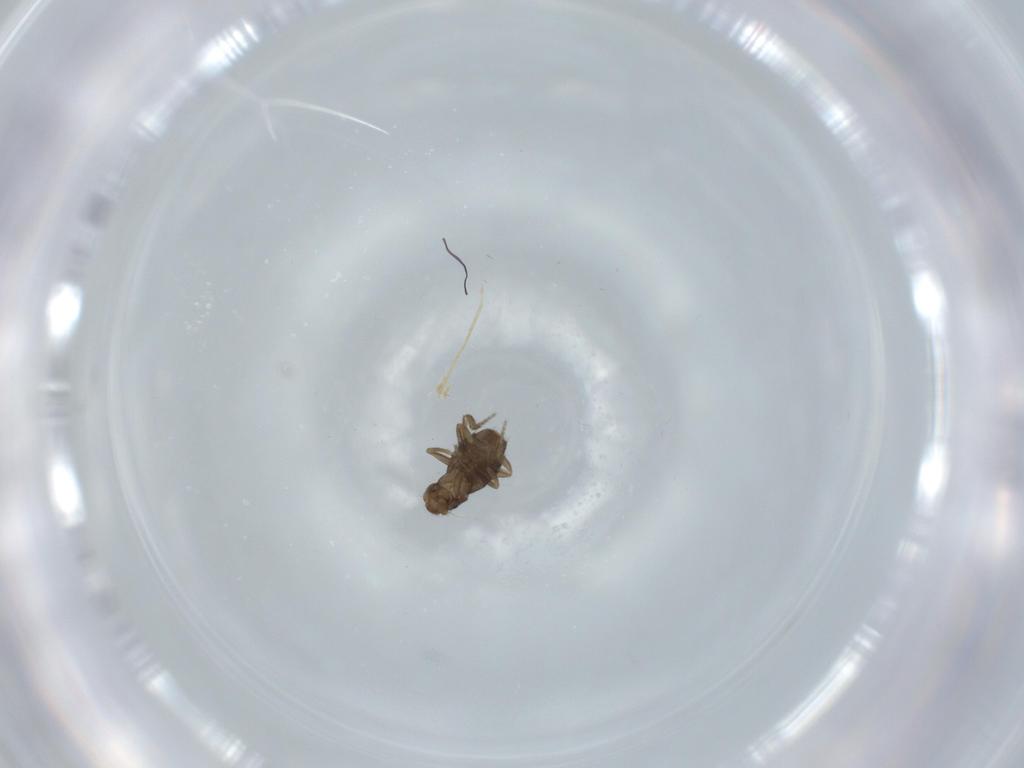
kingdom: Animalia
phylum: Arthropoda
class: Insecta
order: Diptera
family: Phoridae
